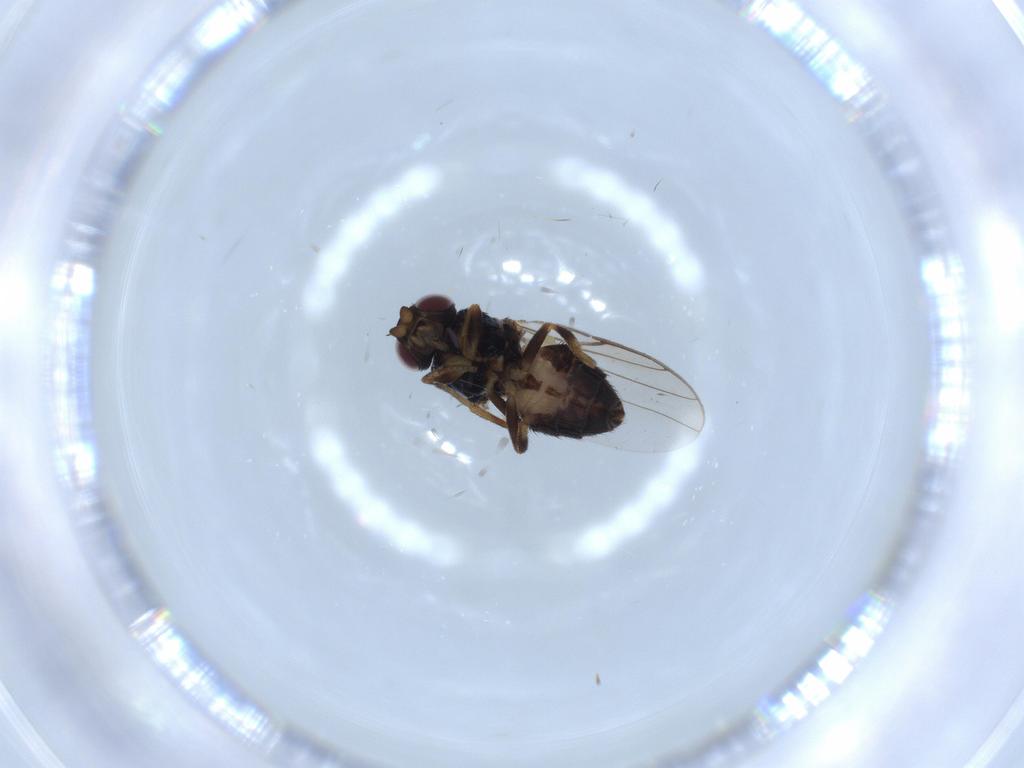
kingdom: Animalia
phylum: Arthropoda
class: Insecta
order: Diptera
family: Chloropidae
